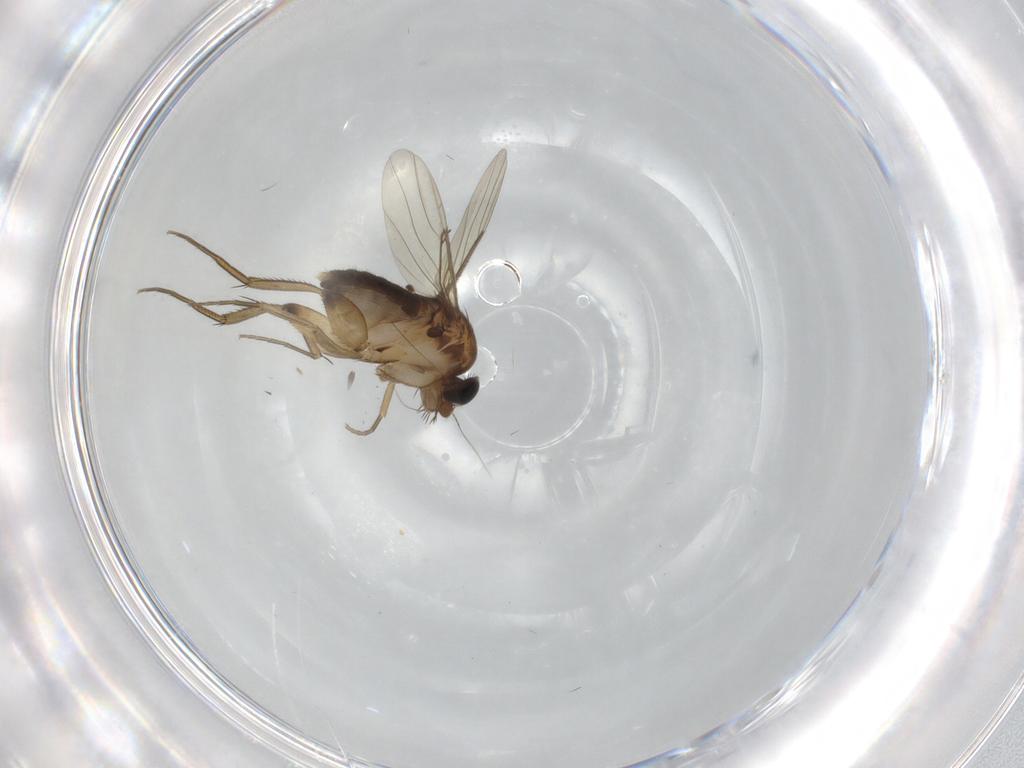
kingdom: Animalia
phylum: Arthropoda
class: Insecta
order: Diptera
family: Phoridae
